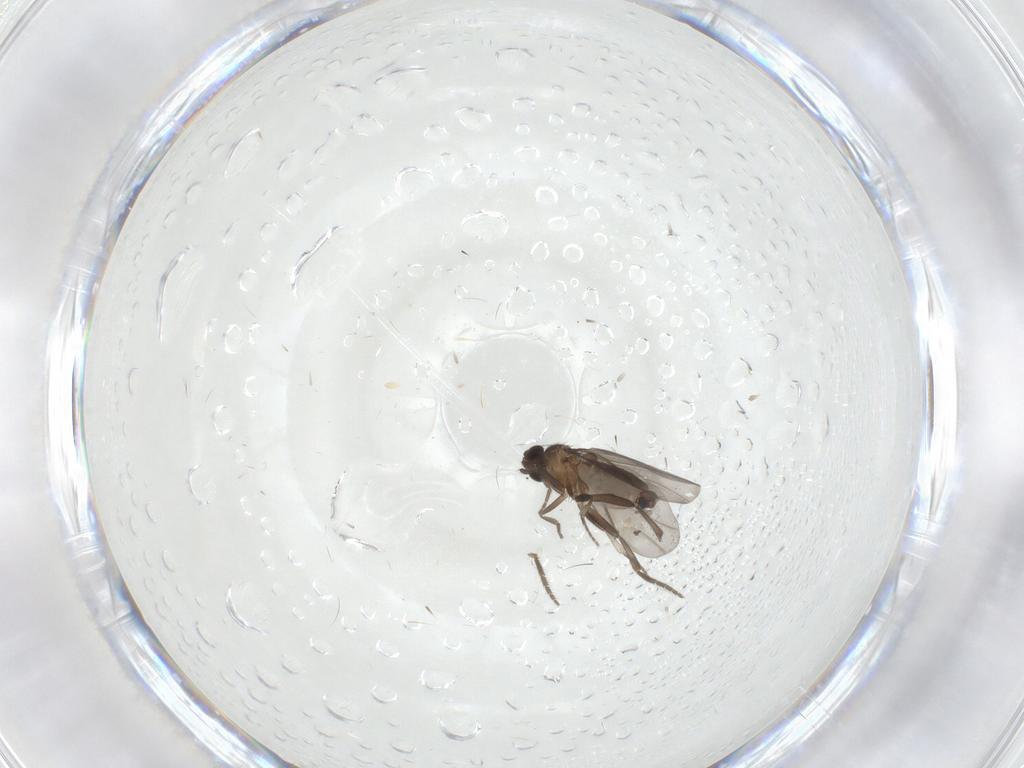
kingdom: Animalia
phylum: Arthropoda
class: Insecta
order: Diptera
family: Phoridae
